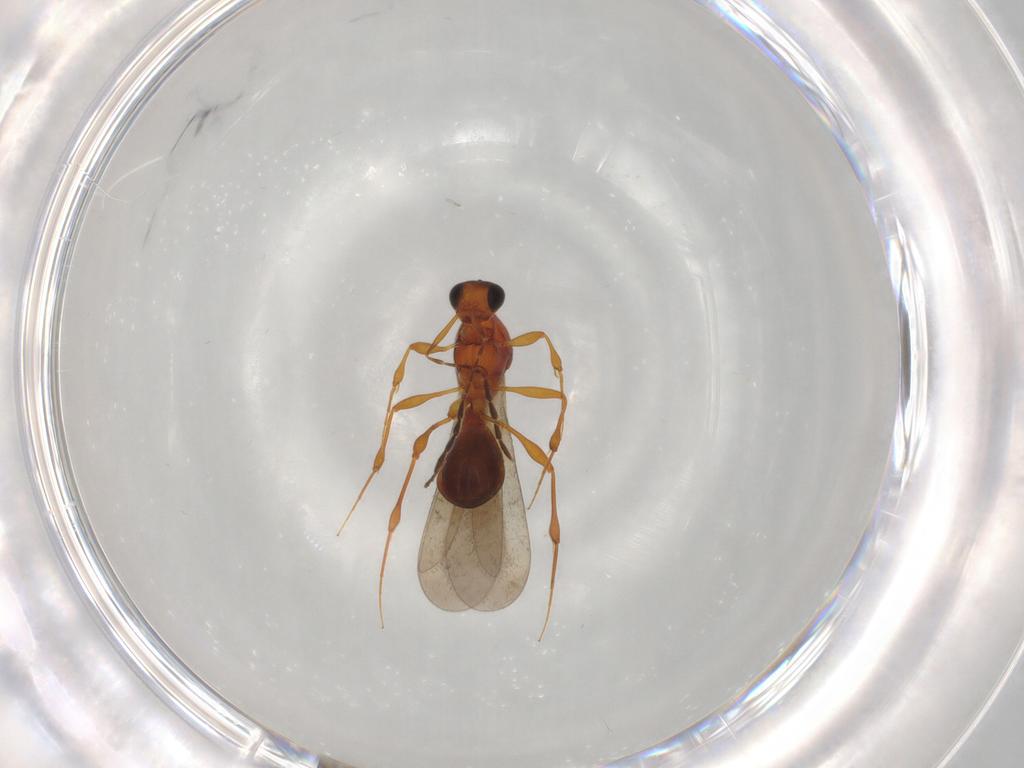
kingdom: Animalia
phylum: Arthropoda
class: Insecta
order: Hymenoptera
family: Platygastridae
